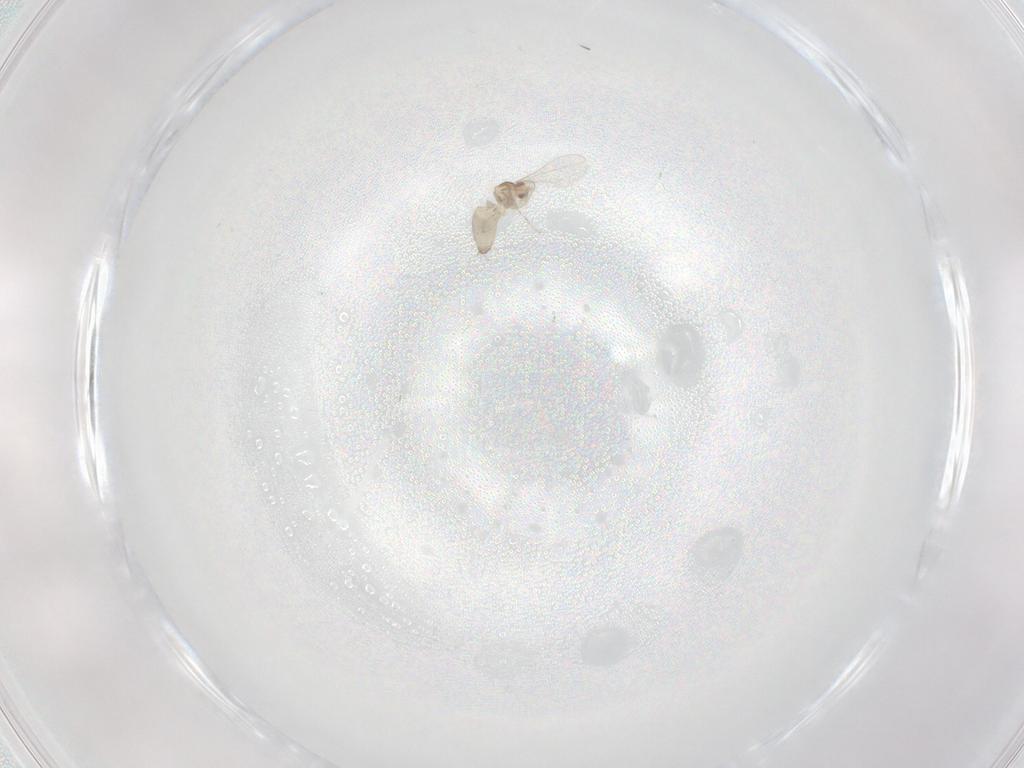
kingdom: Animalia
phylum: Arthropoda
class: Insecta
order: Diptera
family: Cecidomyiidae
